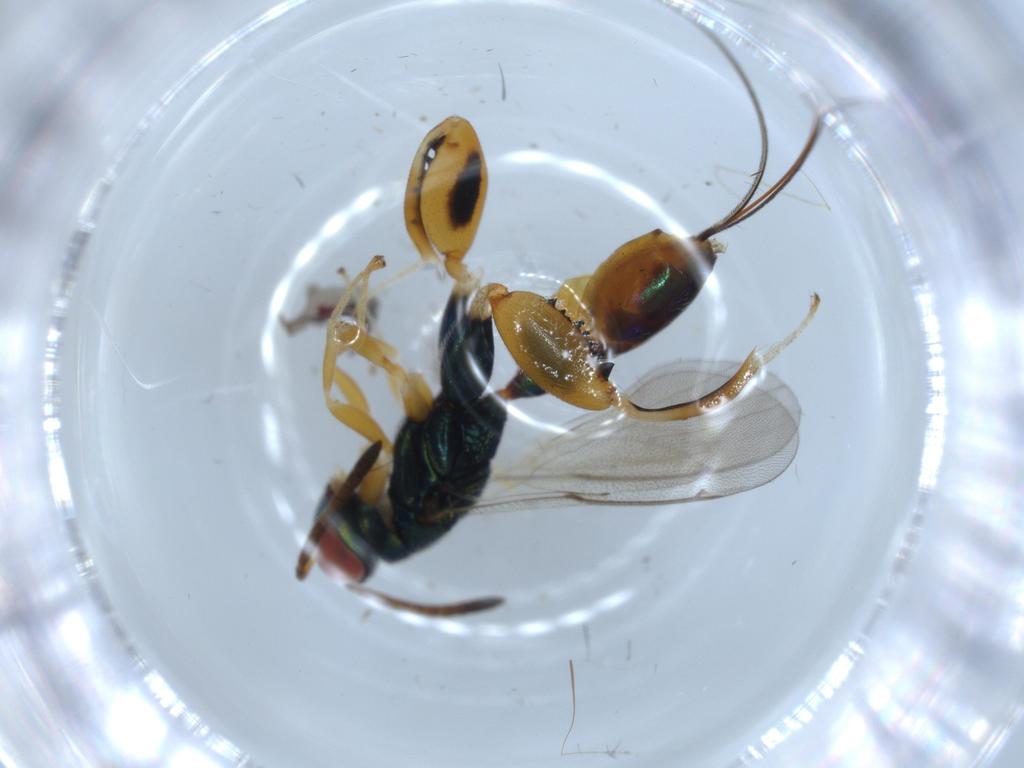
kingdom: Animalia
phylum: Arthropoda
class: Insecta
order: Hymenoptera
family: Torymidae
